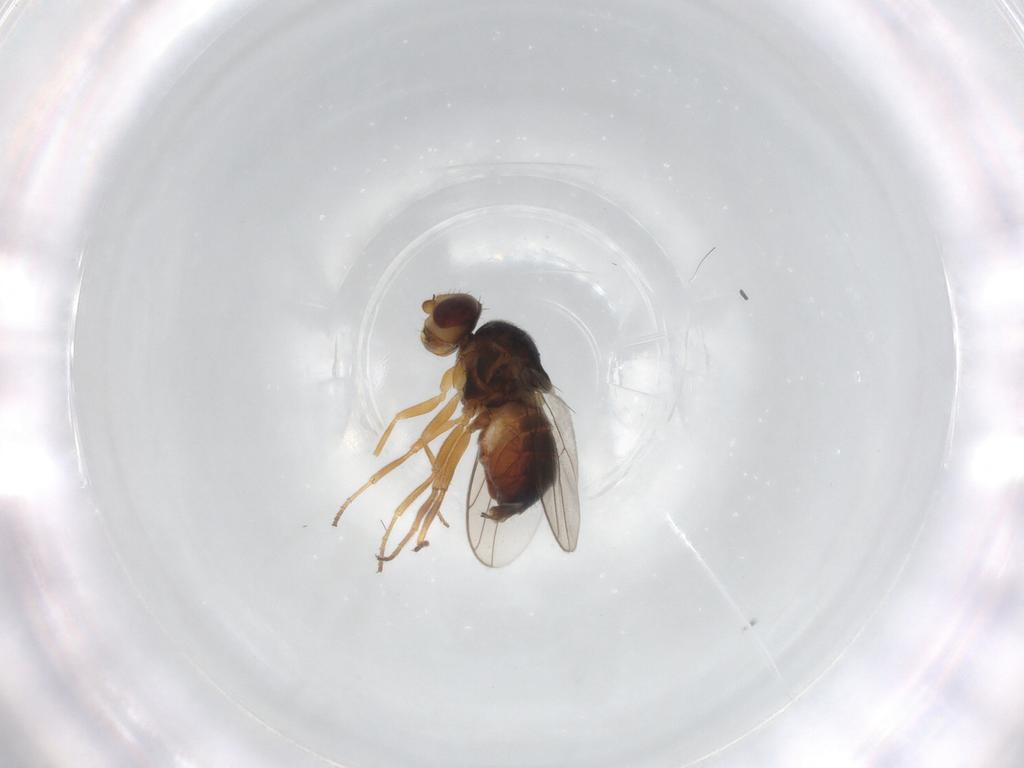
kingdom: Animalia
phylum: Arthropoda
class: Insecta
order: Diptera
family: Chloropidae
